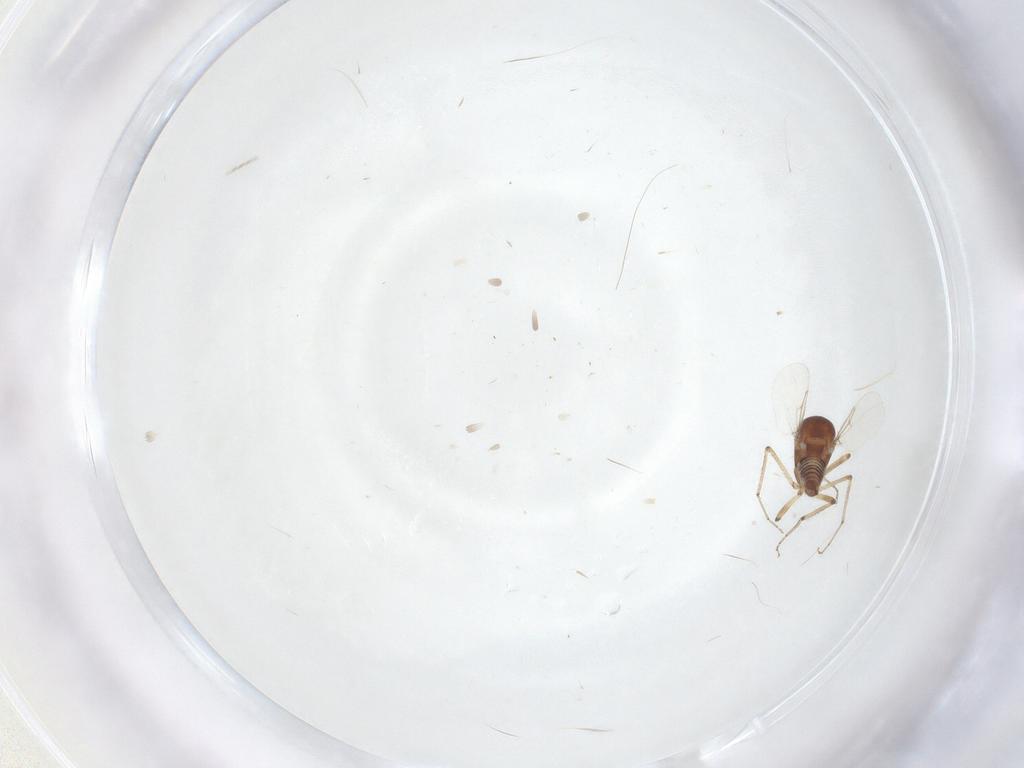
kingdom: Animalia
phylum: Arthropoda
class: Insecta
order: Diptera
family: Ceratopogonidae
